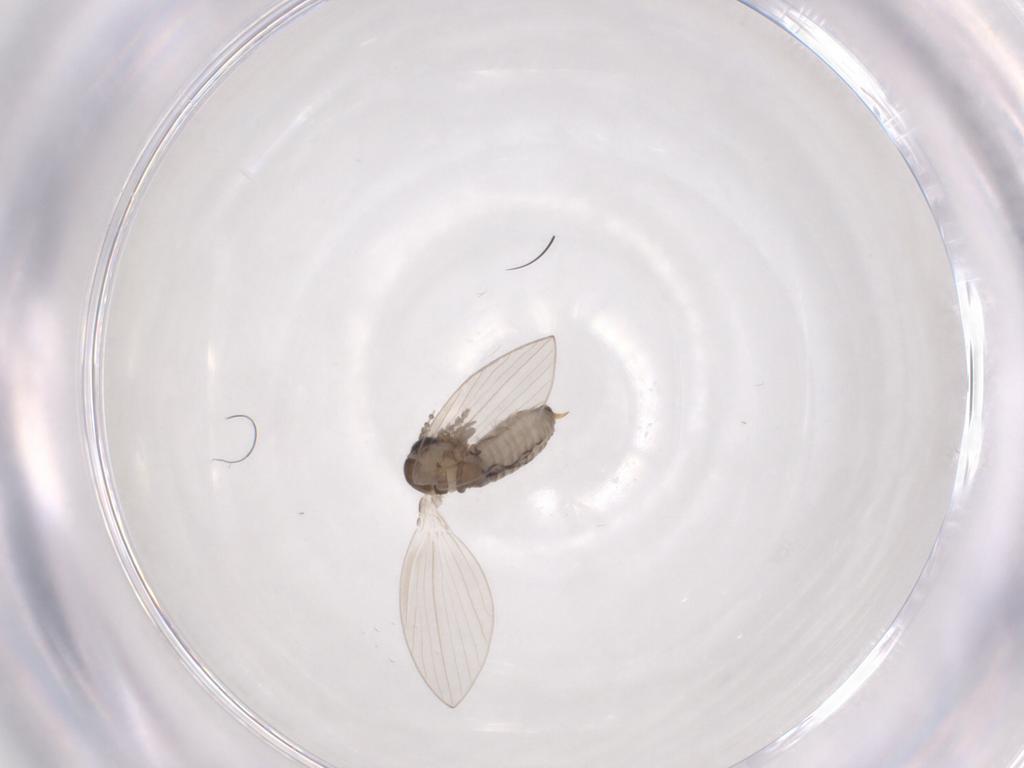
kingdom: Animalia
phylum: Arthropoda
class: Insecta
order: Diptera
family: Psychodidae
